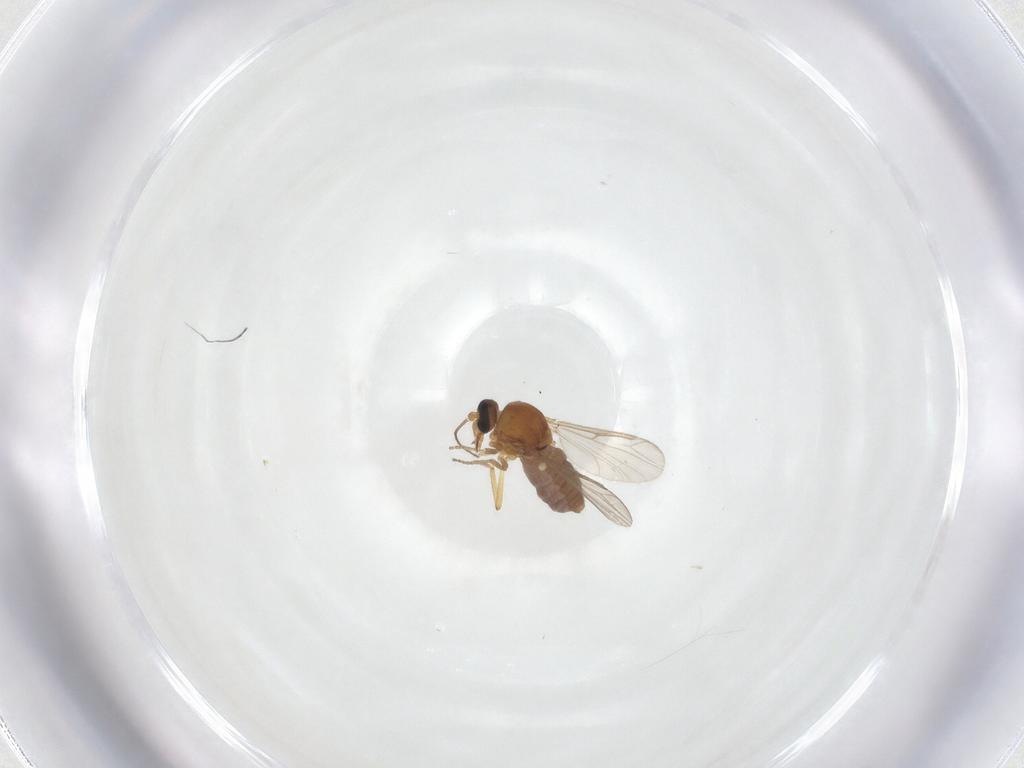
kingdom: Animalia
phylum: Arthropoda
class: Insecta
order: Diptera
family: Ceratopogonidae
